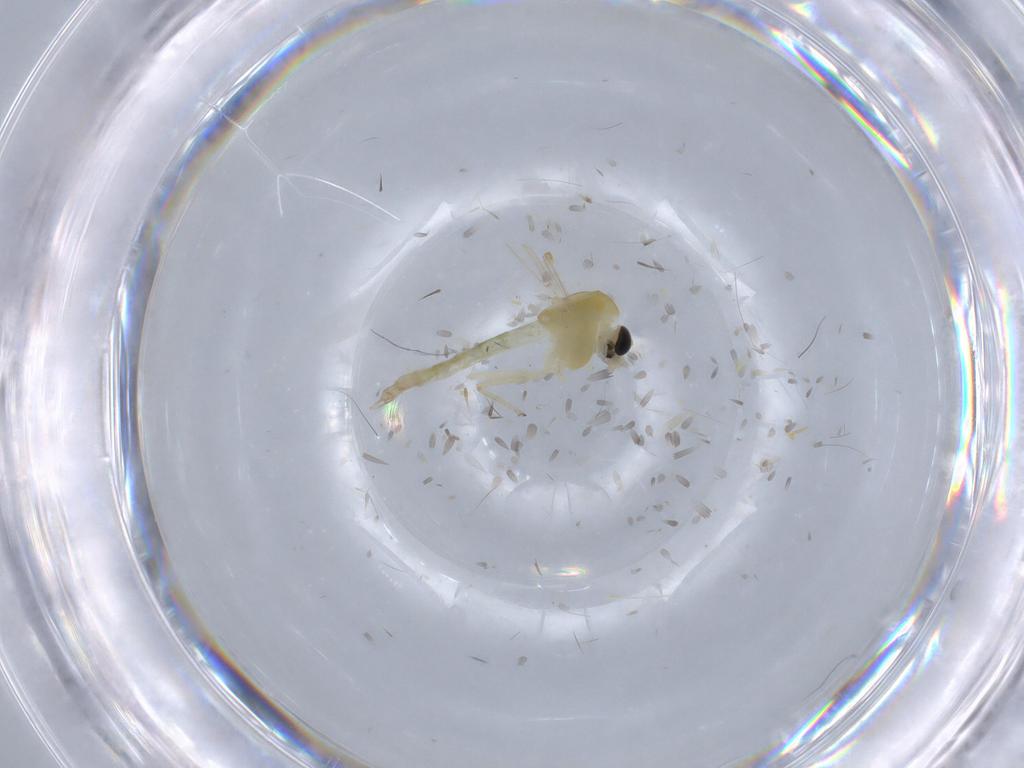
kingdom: Animalia
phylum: Arthropoda
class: Insecta
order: Diptera
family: Chironomidae
